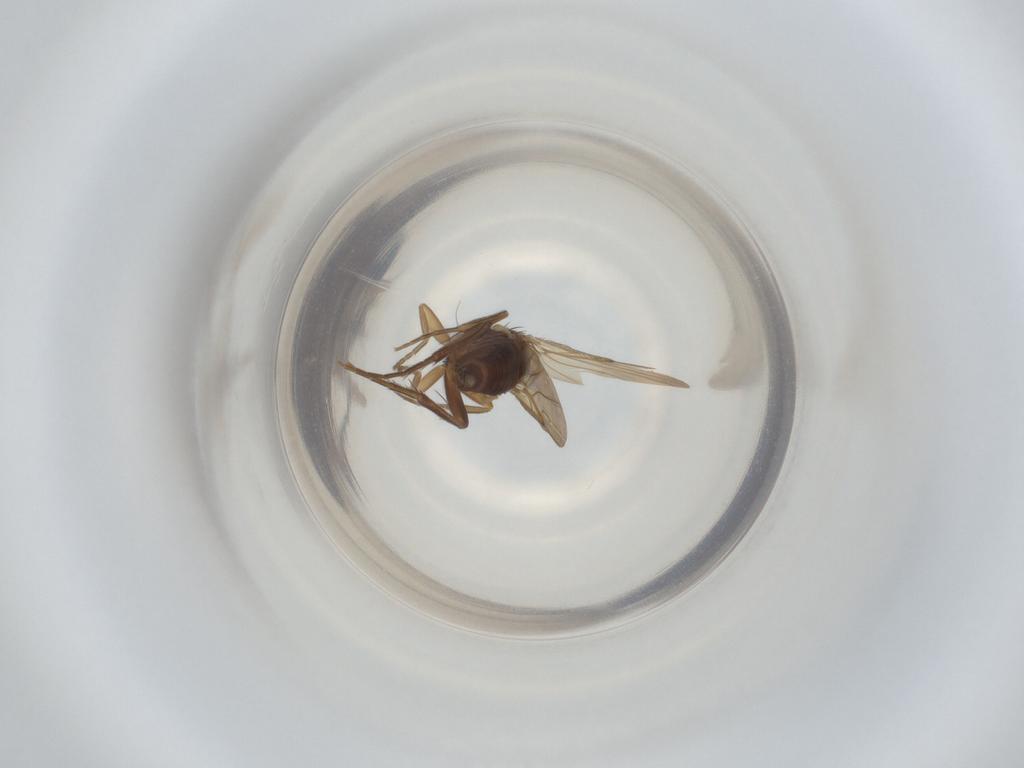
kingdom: Animalia
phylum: Arthropoda
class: Insecta
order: Diptera
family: Phoridae
